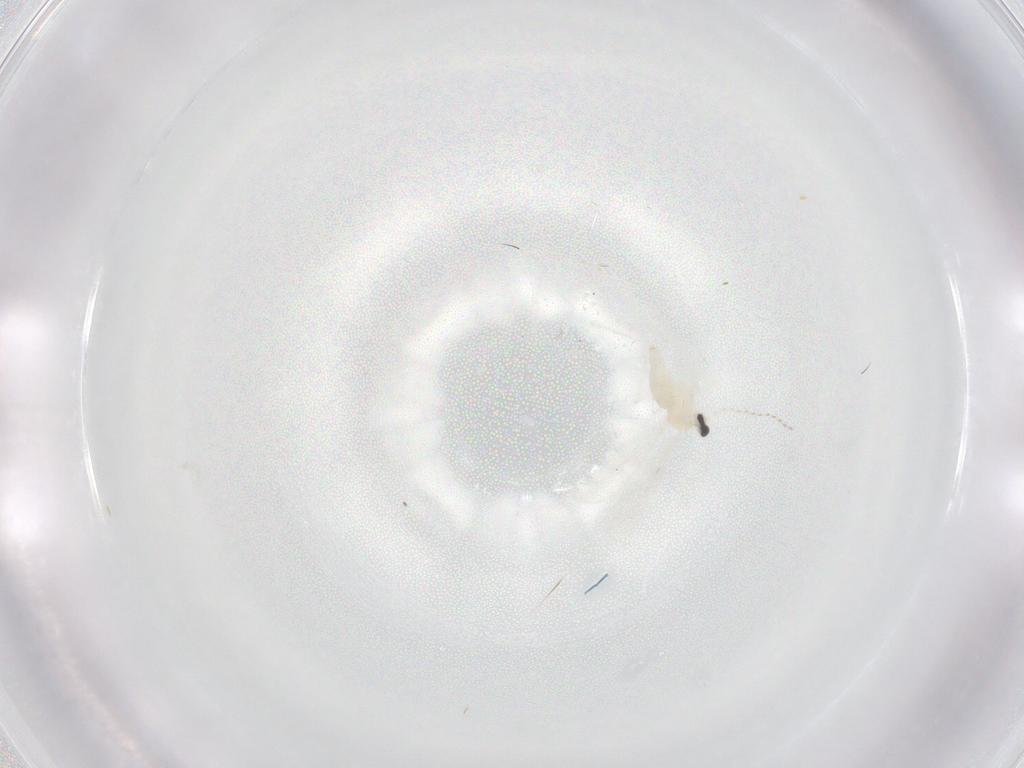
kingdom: Animalia
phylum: Arthropoda
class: Insecta
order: Diptera
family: Cecidomyiidae
